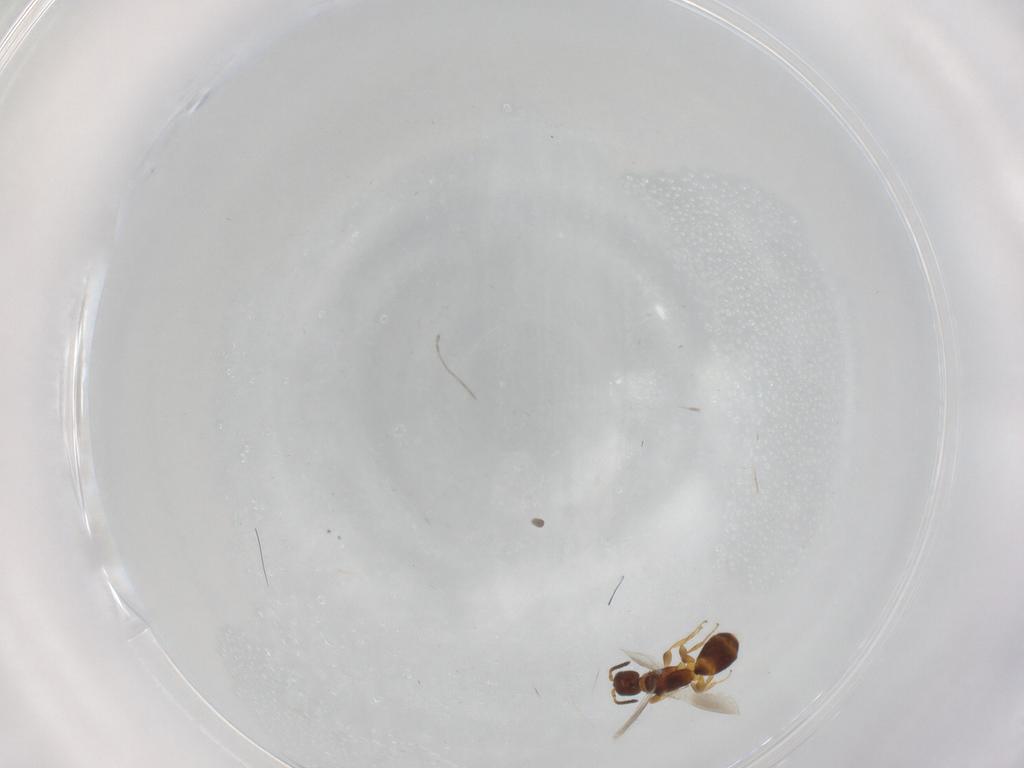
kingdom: Animalia
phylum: Arthropoda
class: Insecta
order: Hymenoptera
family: Bethylidae
